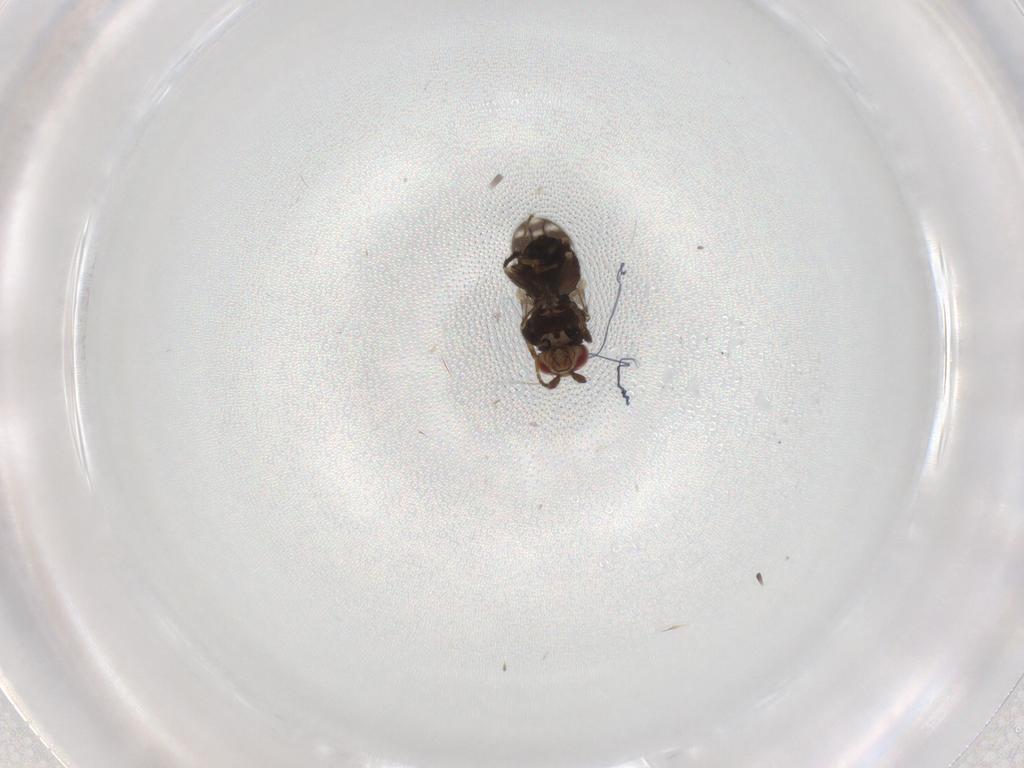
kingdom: Animalia
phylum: Arthropoda
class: Insecta
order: Diptera
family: Sphaeroceridae
